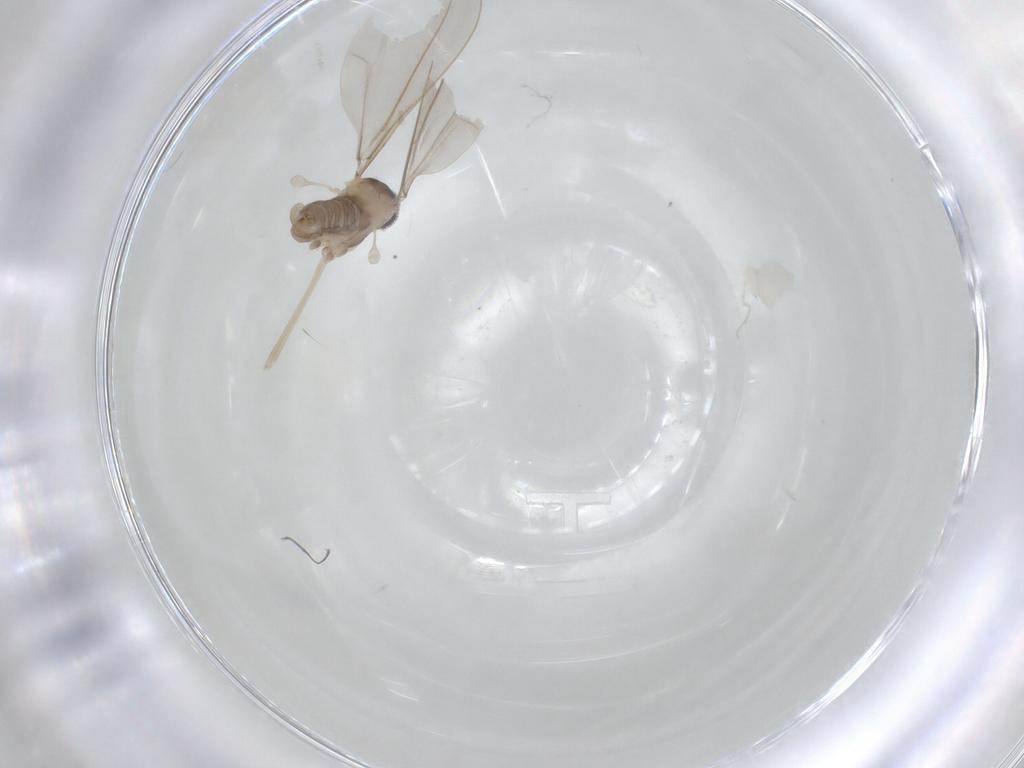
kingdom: Animalia
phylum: Arthropoda
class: Insecta
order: Diptera
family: Cecidomyiidae
